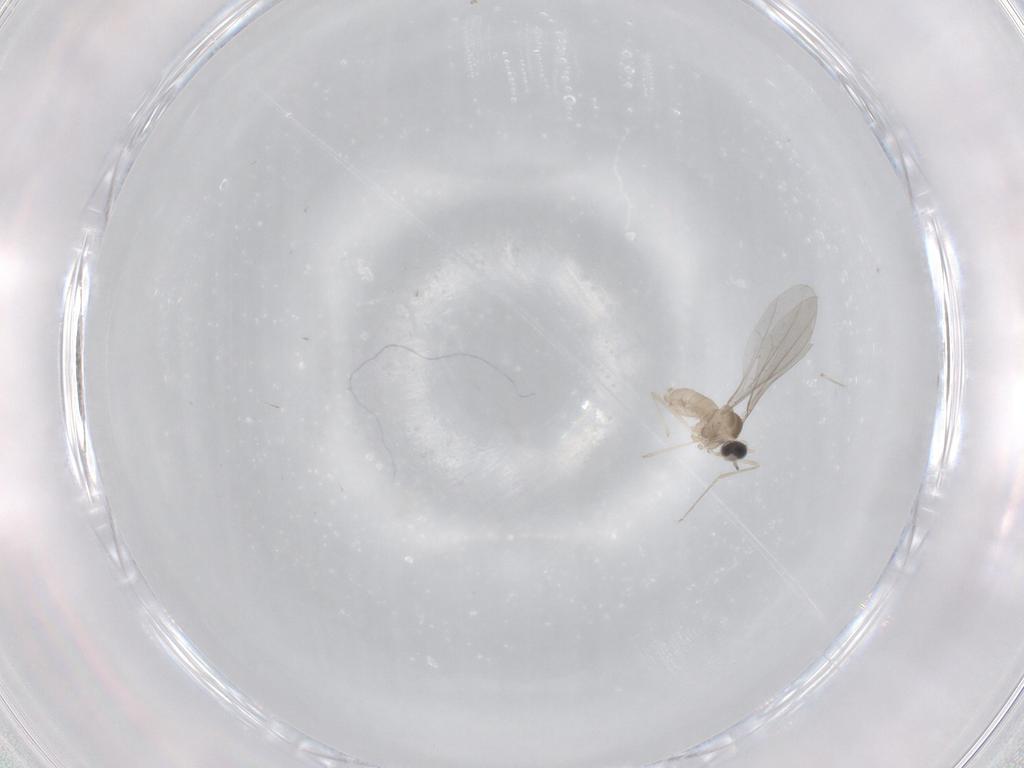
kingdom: Animalia
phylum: Arthropoda
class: Insecta
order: Diptera
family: Cecidomyiidae
